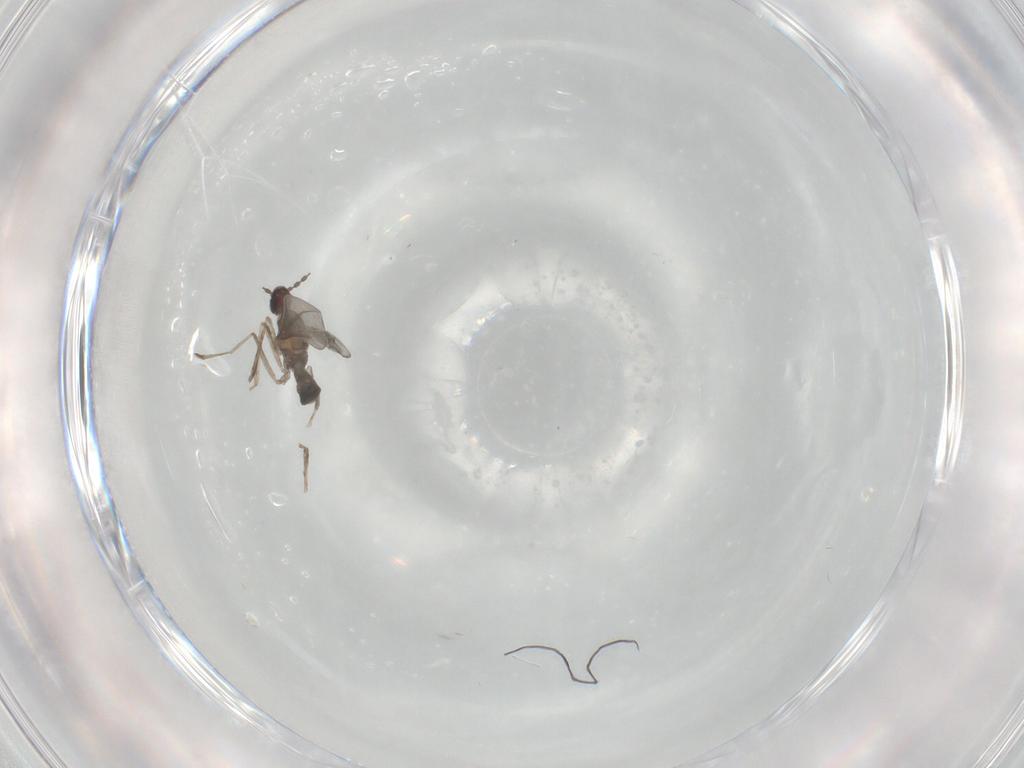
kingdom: Animalia
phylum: Arthropoda
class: Insecta
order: Diptera
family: Cecidomyiidae
